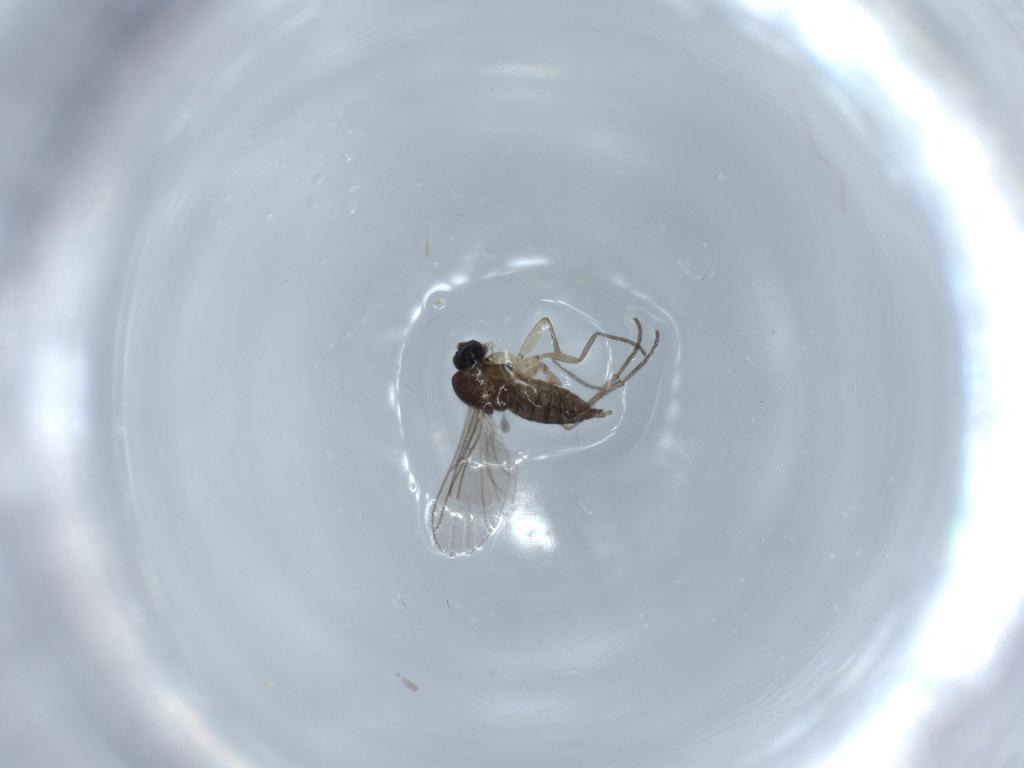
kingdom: Animalia
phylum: Arthropoda
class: Insecta
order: Diptera
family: Sciaridae
